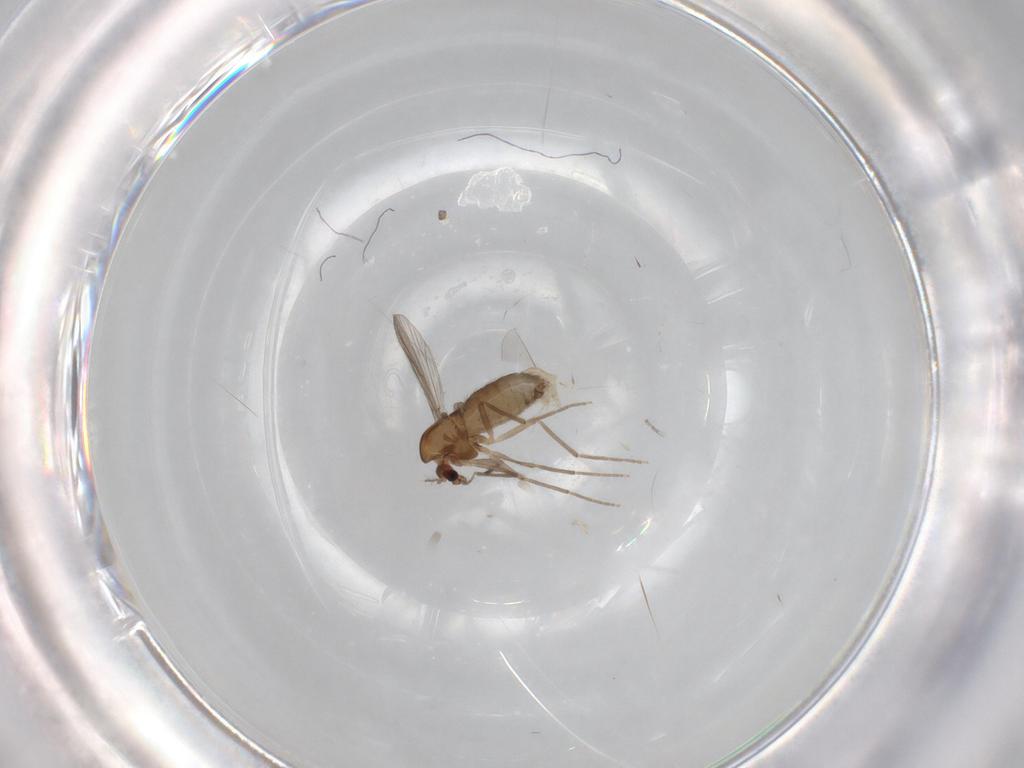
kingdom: Animalia
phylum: Arthropoda
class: Insecta
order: Diptera
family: Chironomidae
